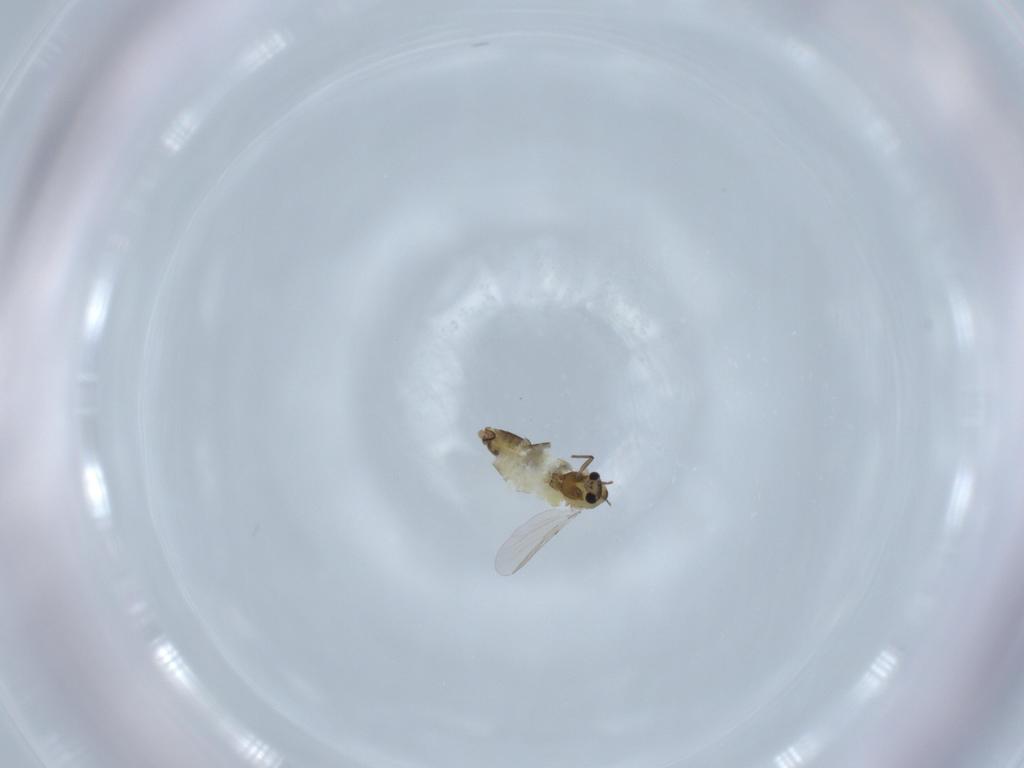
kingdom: Animalia
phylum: Arthropoda
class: Insecta
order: Diptera
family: Chironomidae
